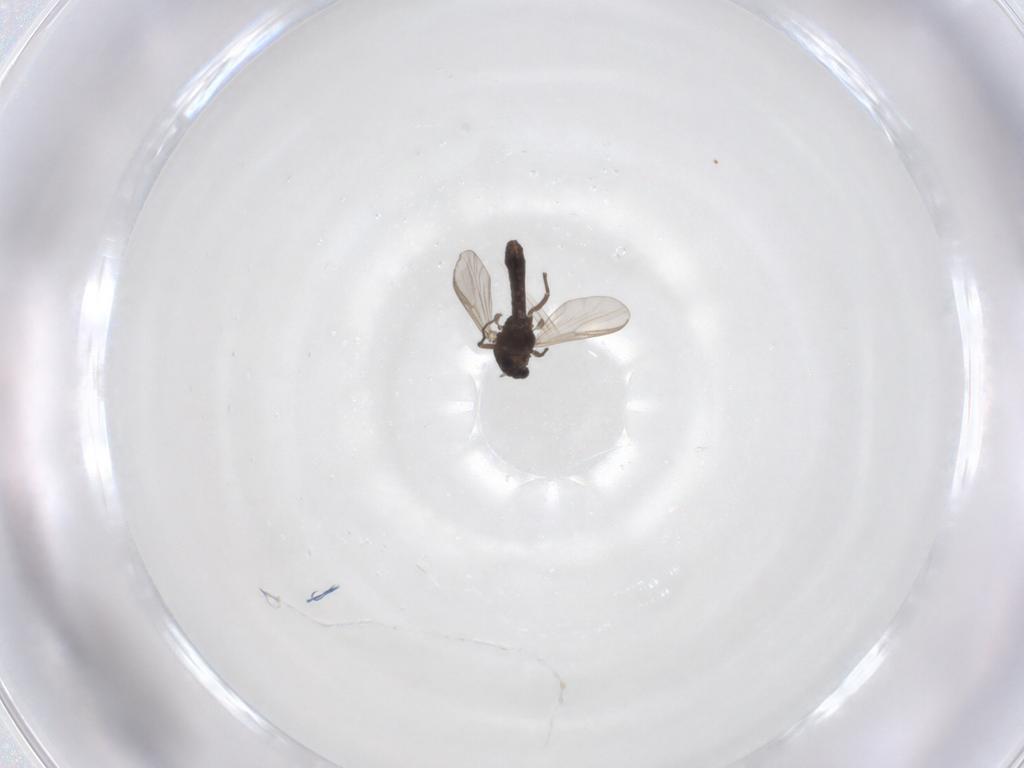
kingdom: Animalia
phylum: Arthropoda
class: Insecta
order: Diptera
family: Chironomidae
